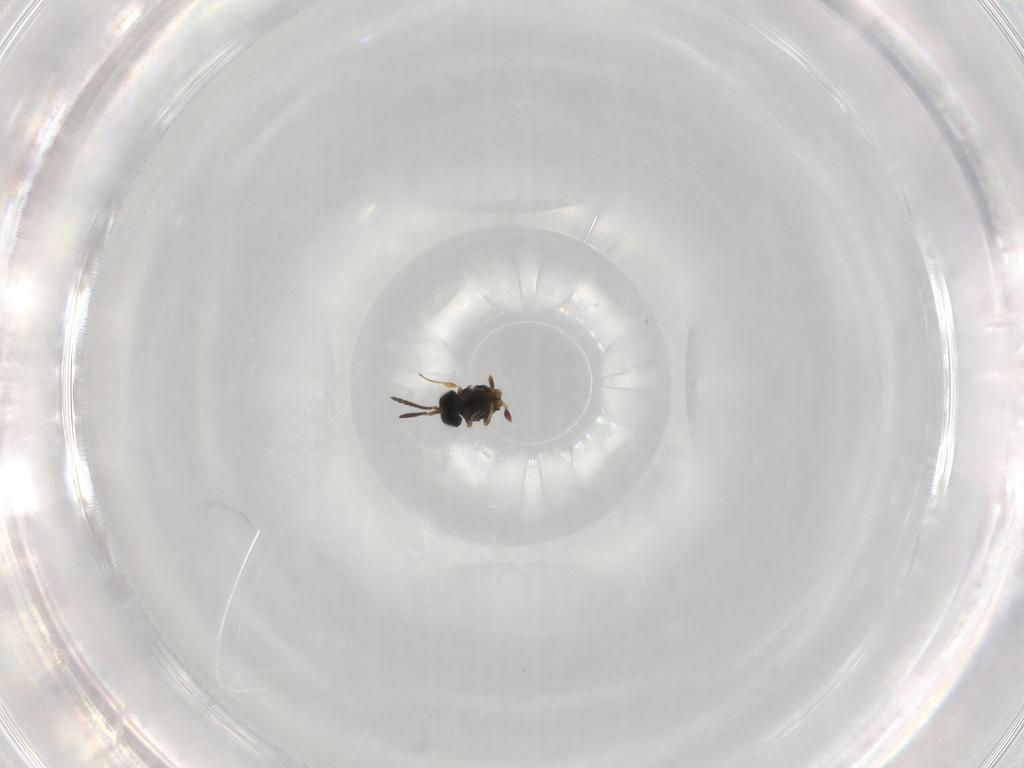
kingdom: Animalia
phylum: Arthropoda
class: Insecta
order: Hymenoptera
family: Scelionidae
